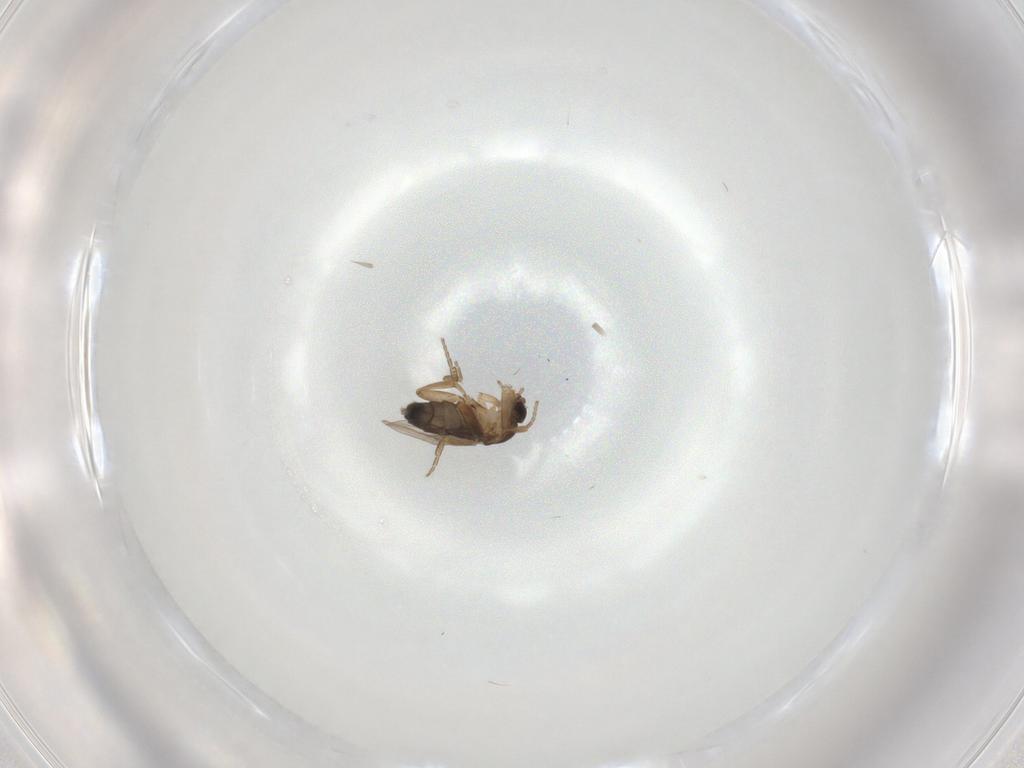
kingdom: Animalia
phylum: Arthropoda
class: Insecta
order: Diptera
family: Phoridae
